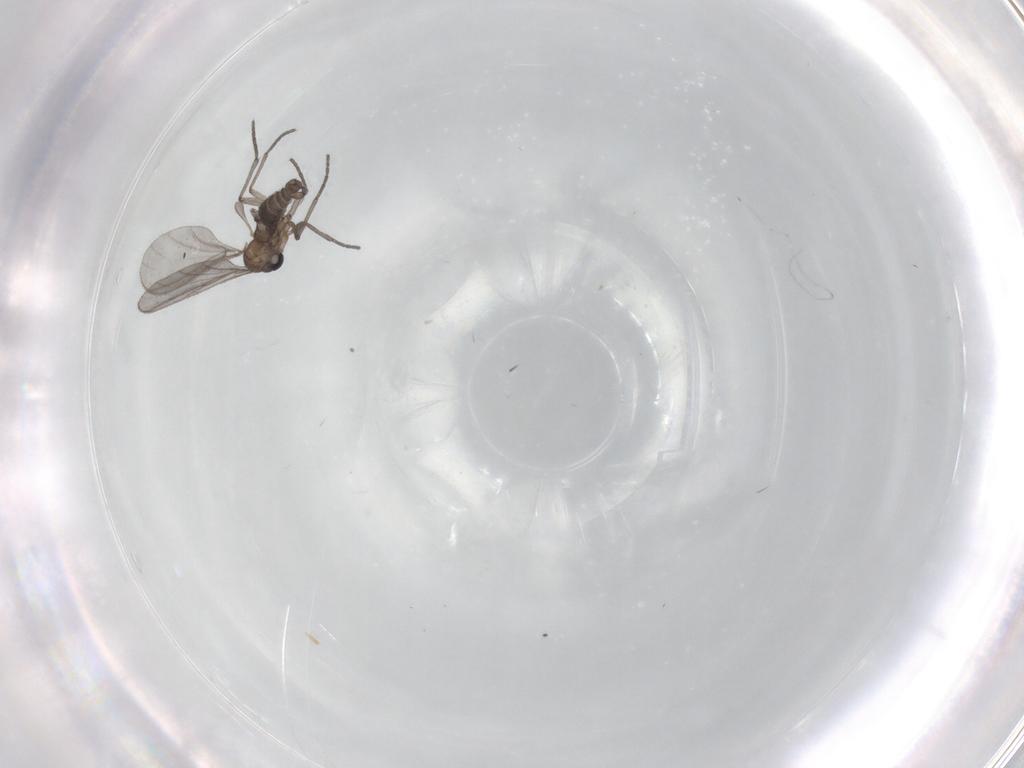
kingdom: Animalia
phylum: Arthropoda
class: Insecta
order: Diptera
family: Sciaridae
